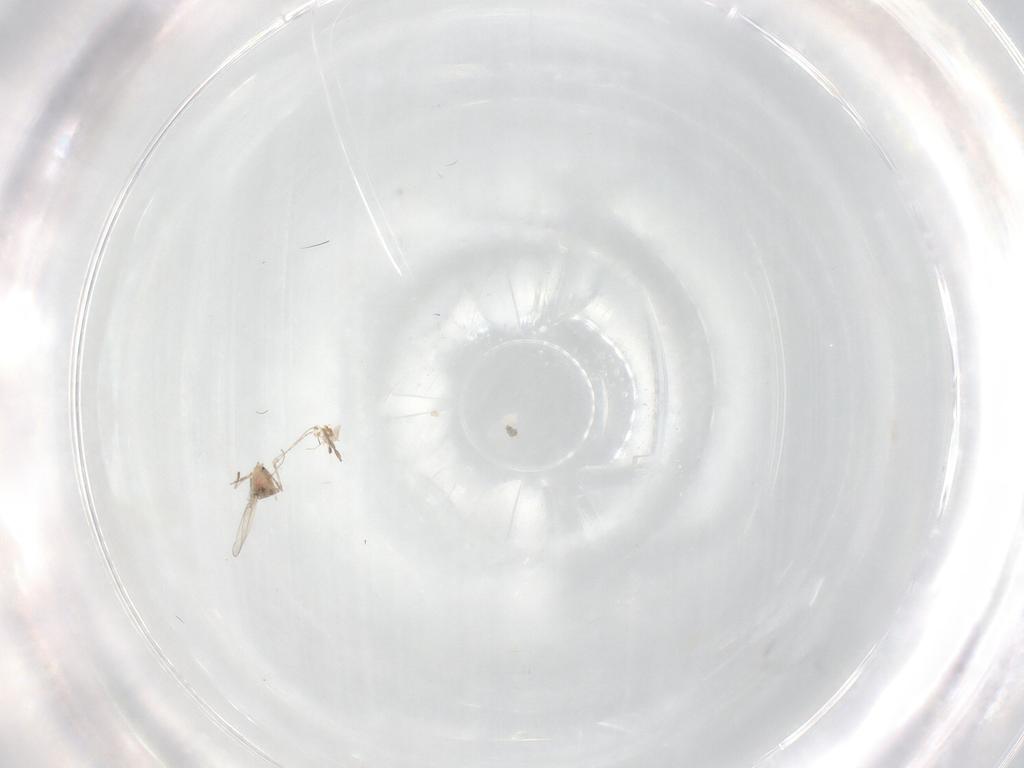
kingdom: Animalia
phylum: Arthropoda
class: Insecta
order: Diptera
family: Cecidomyiidae
